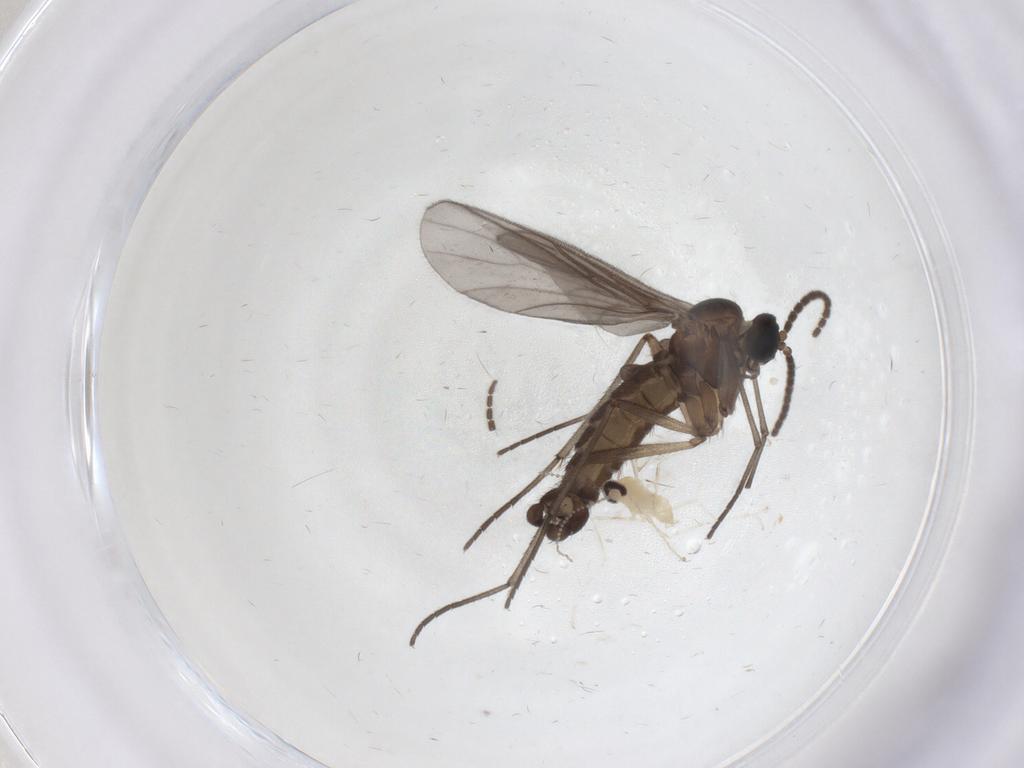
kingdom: Animalia
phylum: Arthropoda
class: Insecta
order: Diptera
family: Sciaridae
